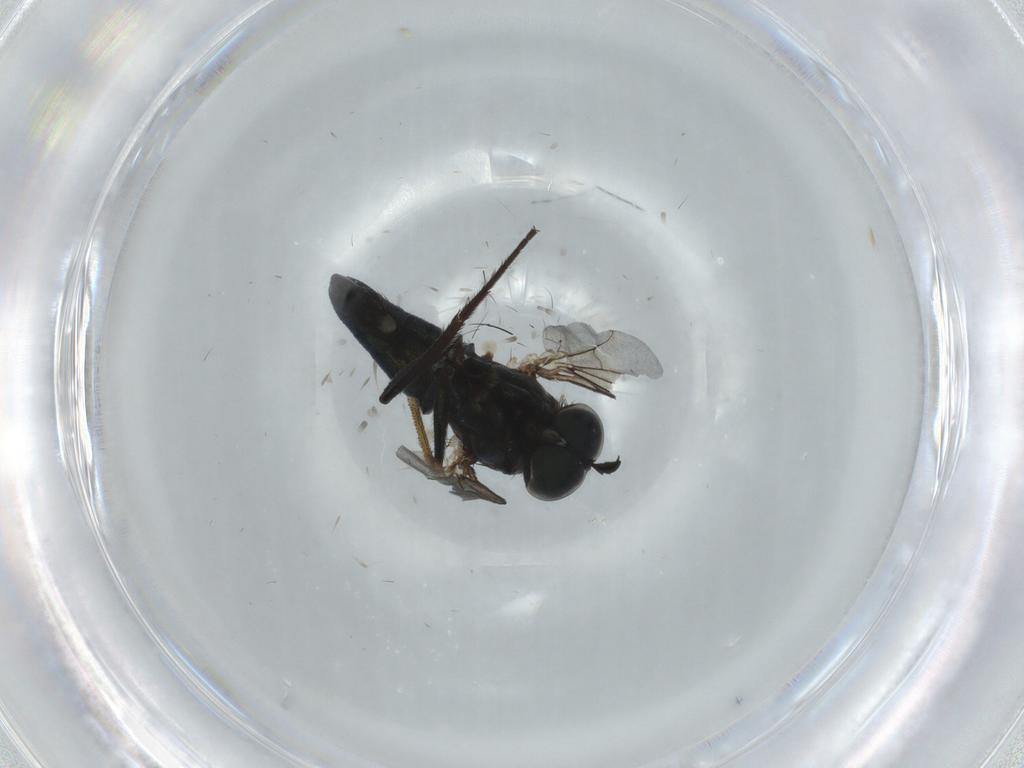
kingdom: Animalia
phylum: Arthropoda
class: Insecta
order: Diptera
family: Dolichopodidae
